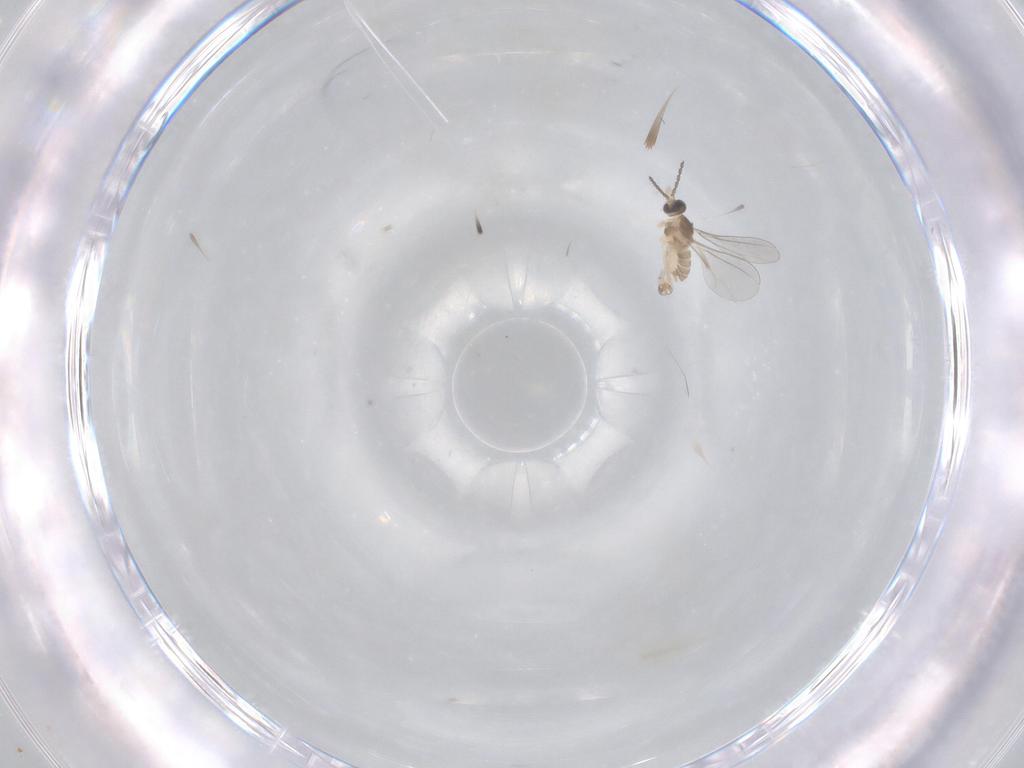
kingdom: Animalia
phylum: Arthropoda
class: Insecta
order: Diptera
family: Cecidomyiidae
